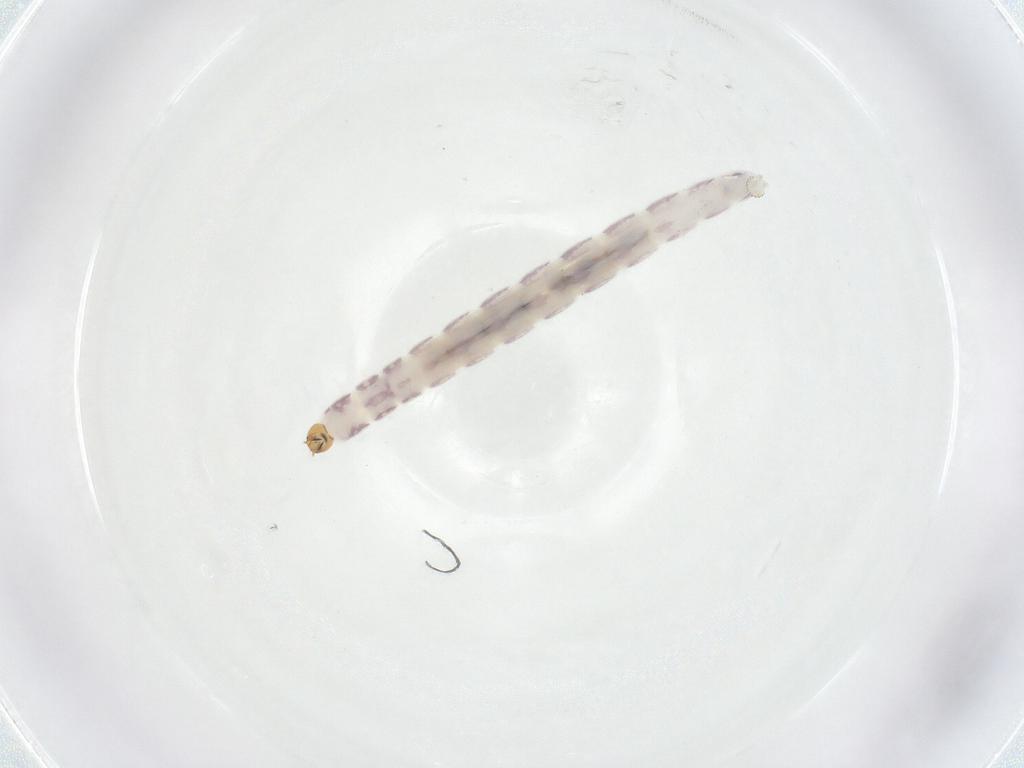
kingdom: Animalia
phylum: Arthropoda
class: Insecta
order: Diptera
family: Chironomidae
